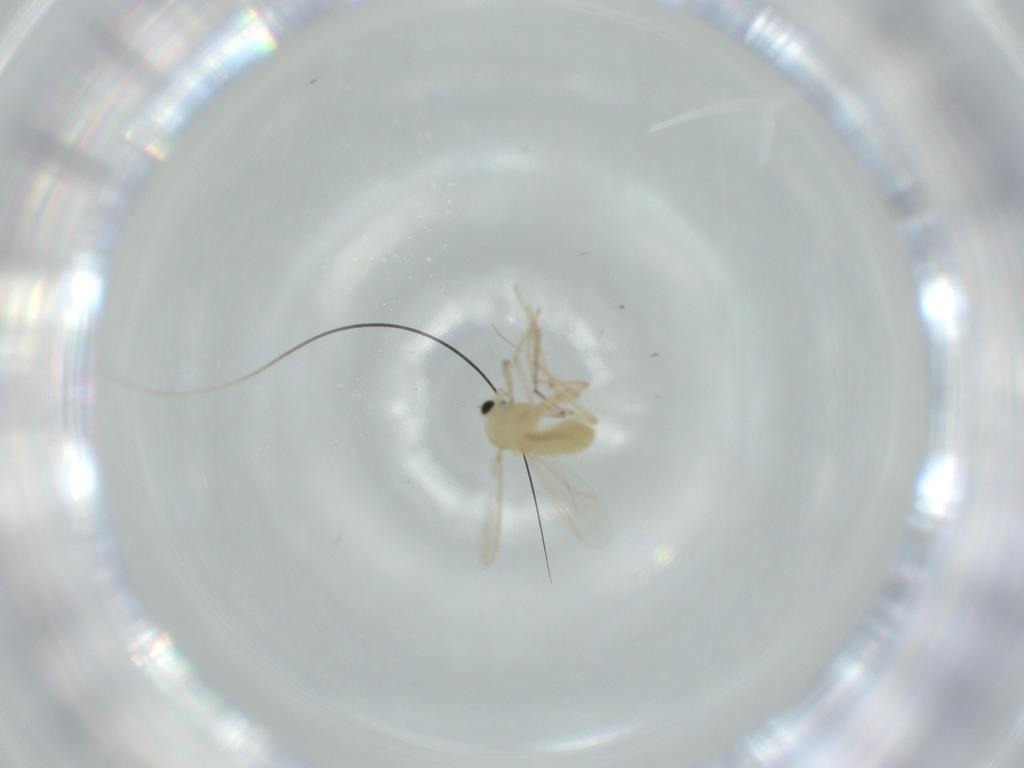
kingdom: Animalia
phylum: Arthropoda
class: Insecta
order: Diptera
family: Chironomidae
